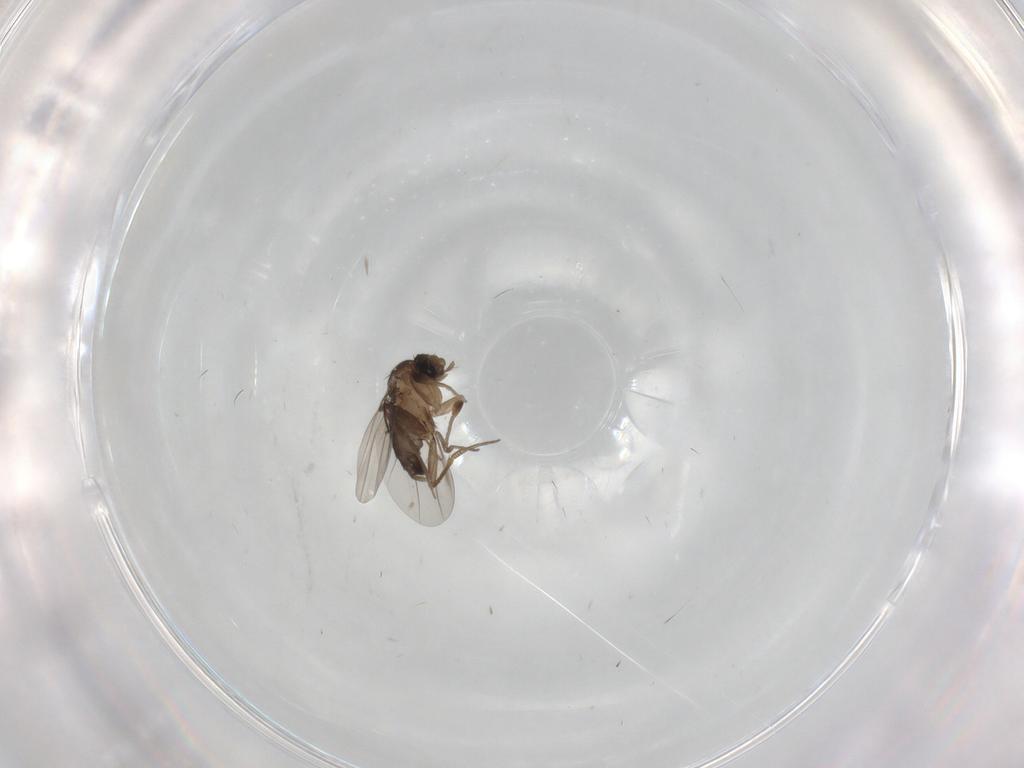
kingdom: Animalia
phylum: Arthropoda
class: Insecta
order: Diptera
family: Phoridae
